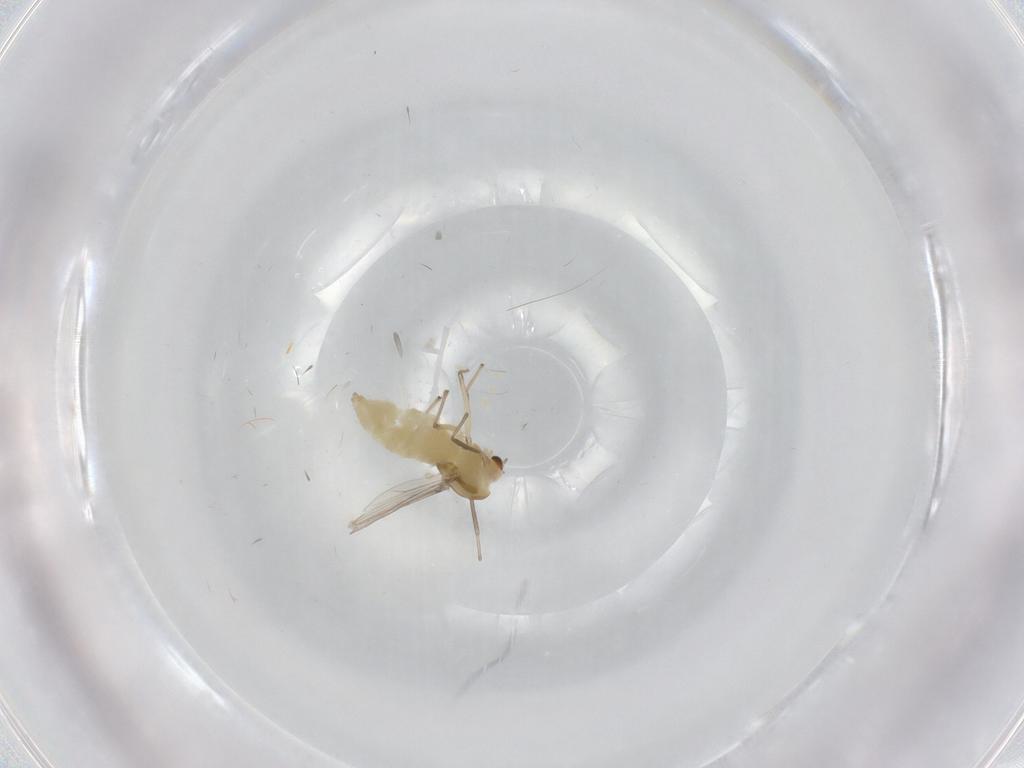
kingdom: Animalia
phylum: Arthropoda
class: Insecta
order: Diptera
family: Chironomidae
